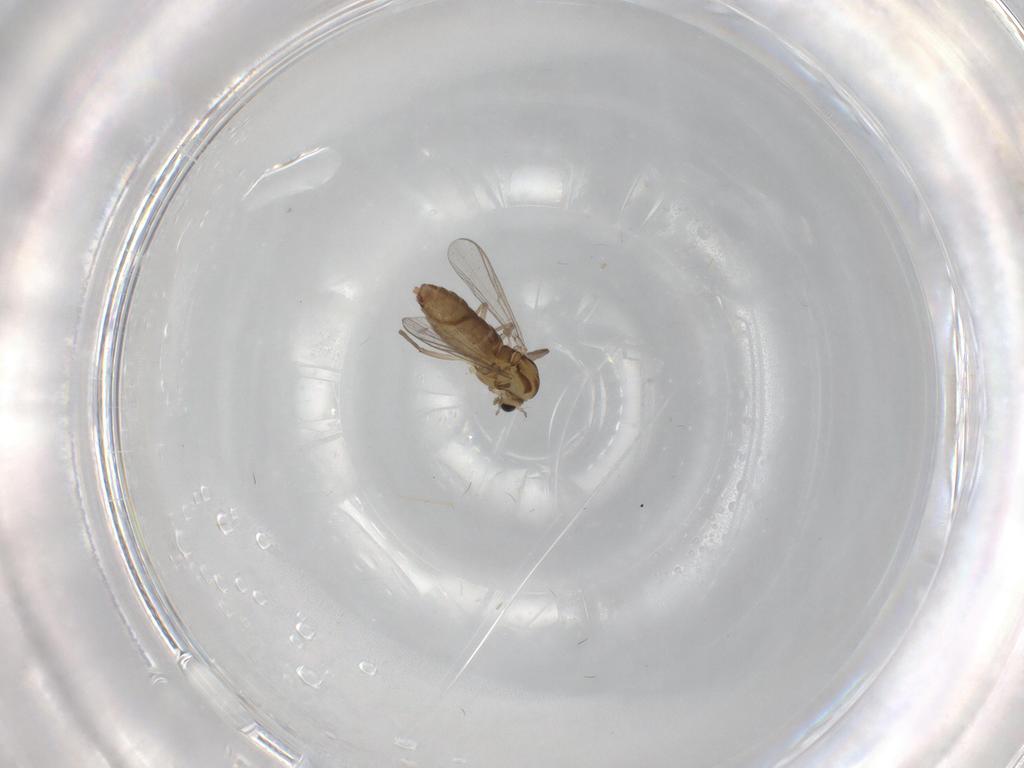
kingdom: Animalia
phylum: Arthropoda
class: Insecta
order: Diptera
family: Chironomidae
